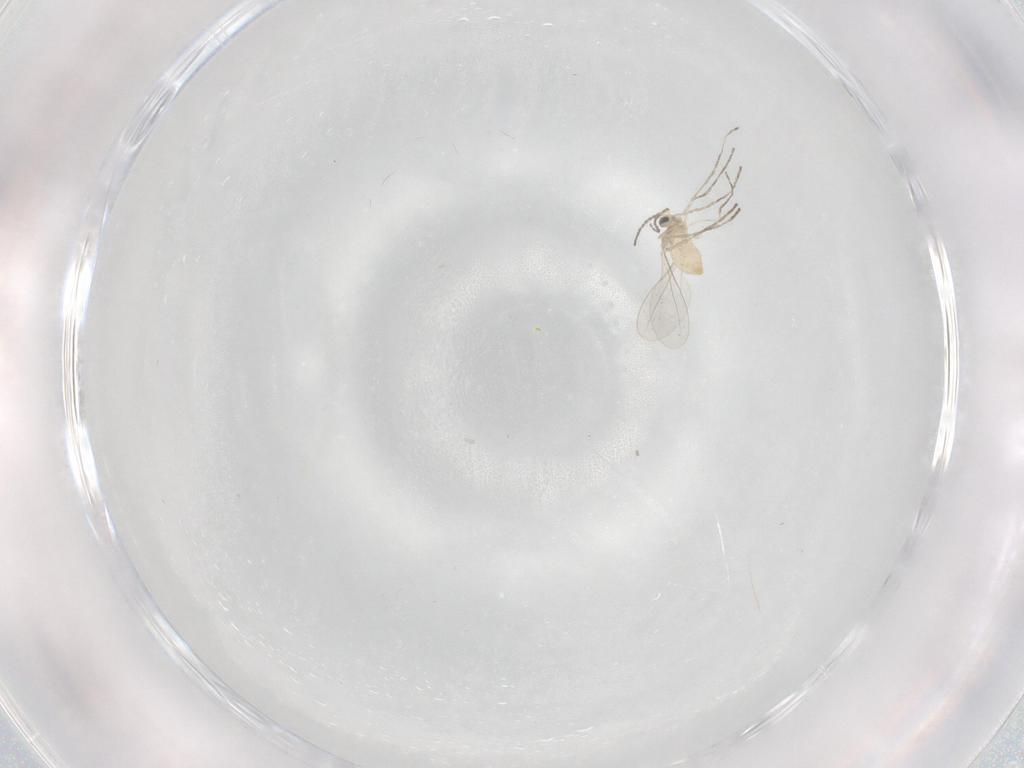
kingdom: Animalia
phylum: Arthropoda
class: Insecta
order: Diptera
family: Cecidomyiidae
